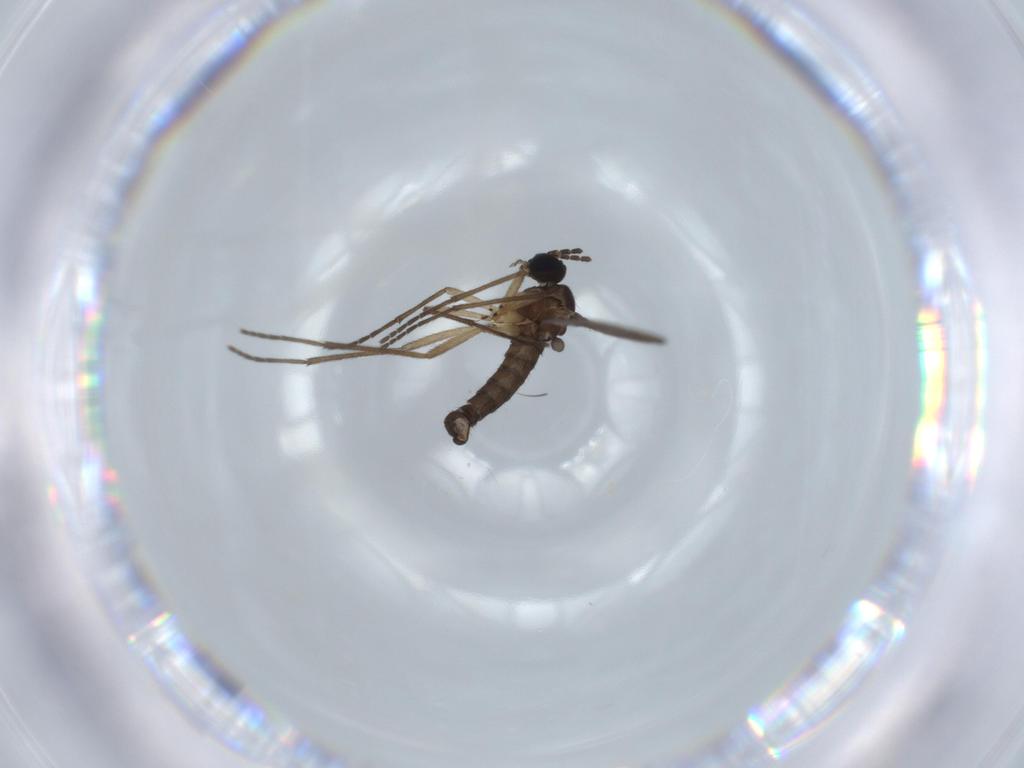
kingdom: Animalia
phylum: Arthropoda
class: Insecta
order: Diptera
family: Sciaridae
